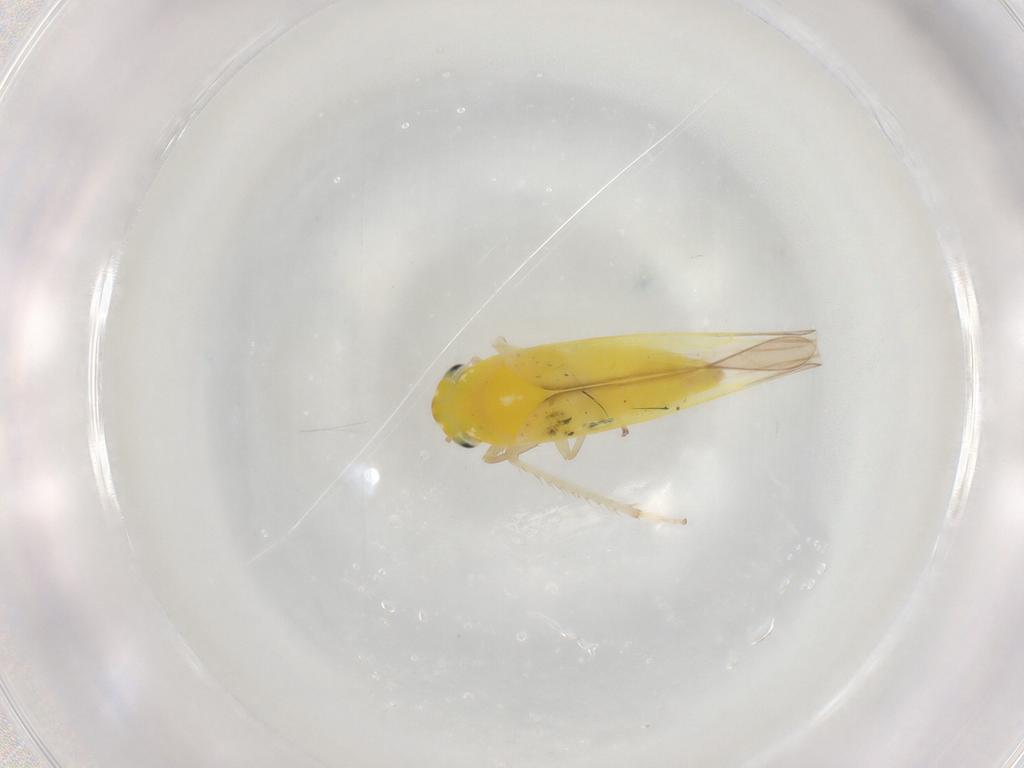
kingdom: Animalia
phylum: Arthropoda
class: Insecta
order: Hemiptera
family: Cicadellidae
